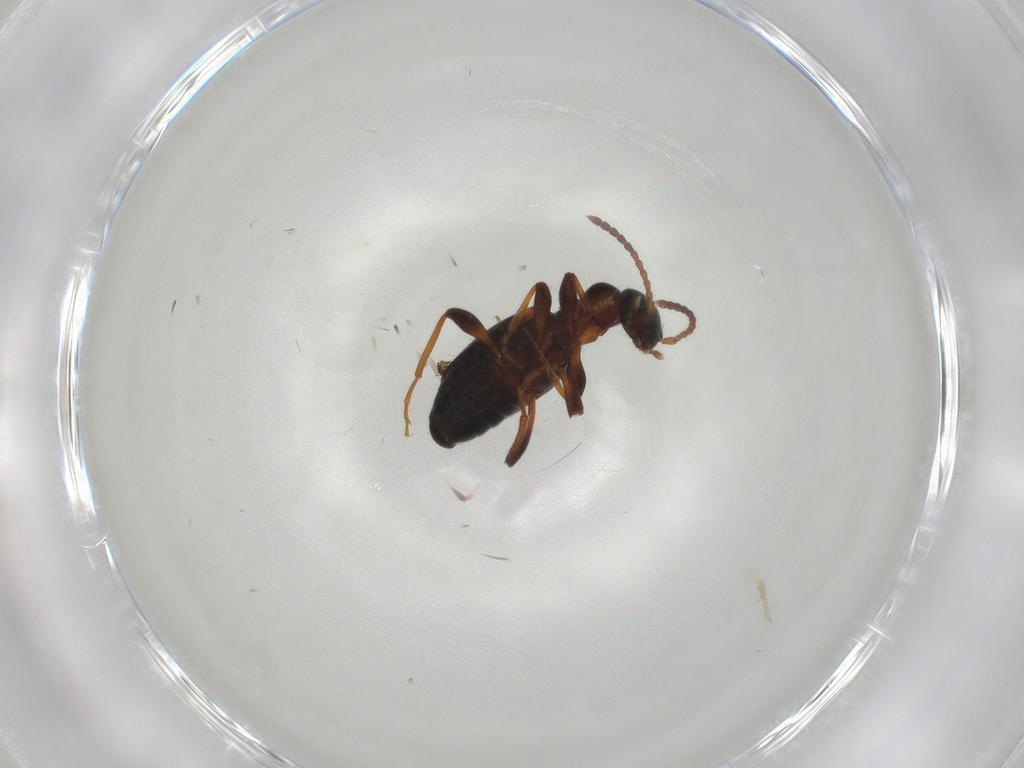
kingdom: Animalia
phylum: Arthropoda
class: Insecta
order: Coleoptera
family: Anthicidae
